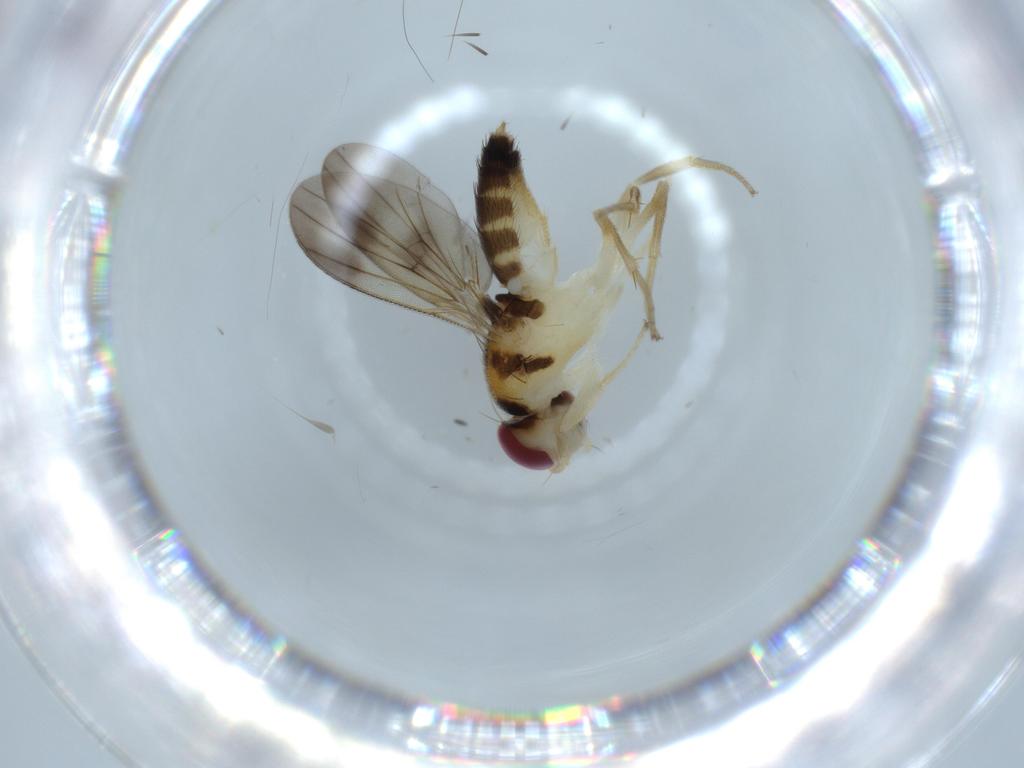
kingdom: Animalia
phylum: Arthropoda
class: Insecta
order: Diptera
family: Clusiidae
